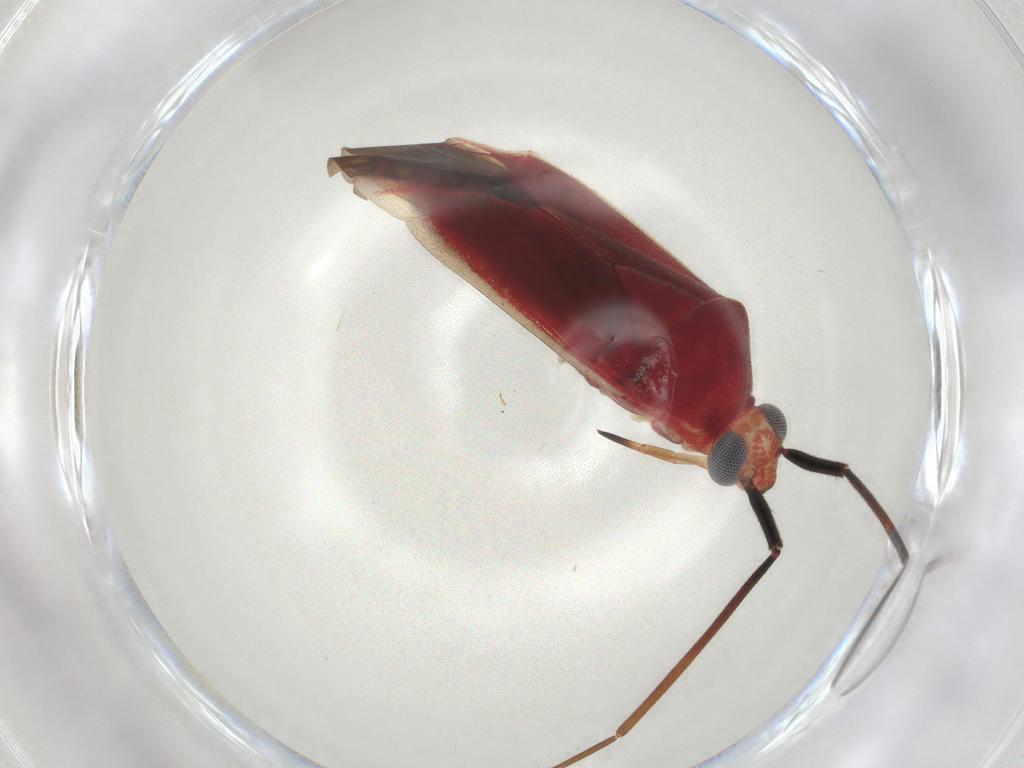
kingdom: Animalia
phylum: Arthropoda
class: Insecta
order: Hemiptera
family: Miridae
